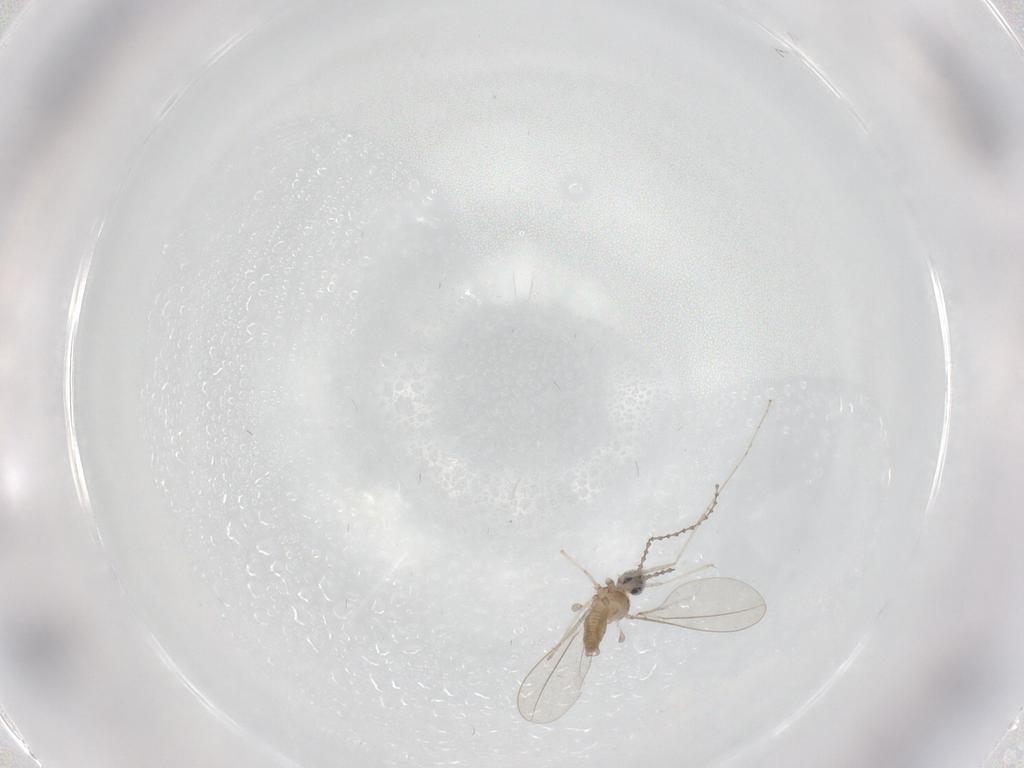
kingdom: Animalia
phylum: Arthropoda
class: Insecta
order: Diptera
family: Cecidomyiidae
